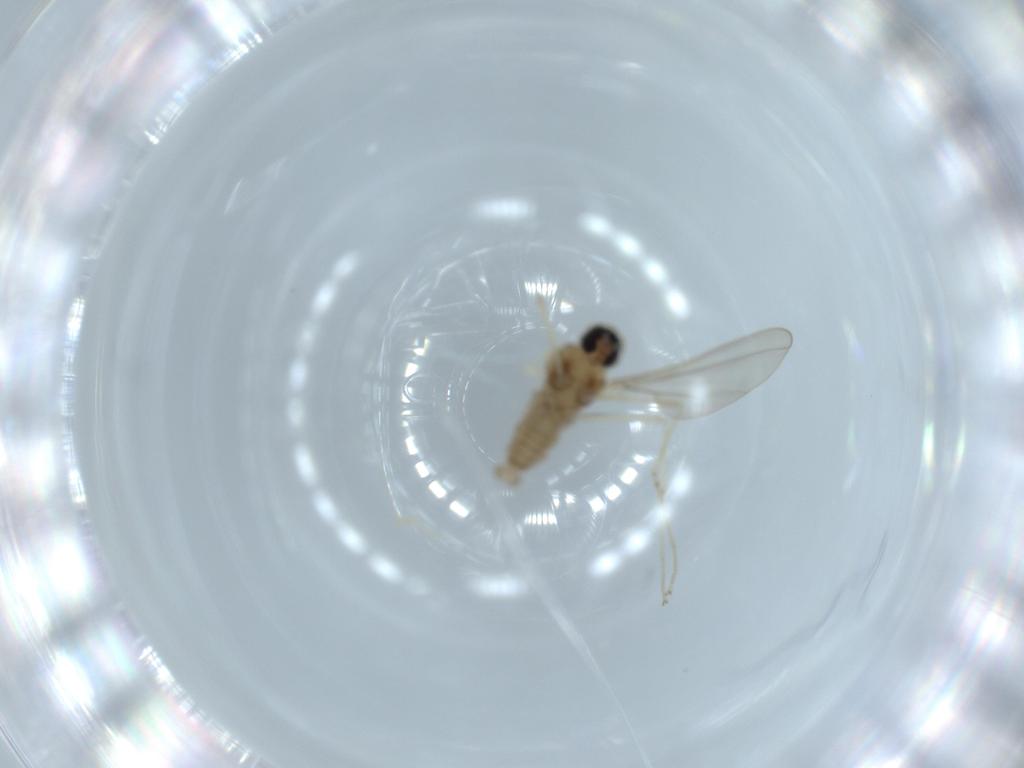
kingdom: Animalia
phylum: Arthropoda
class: Insecta
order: Diptera
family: Cecidomyiidae
